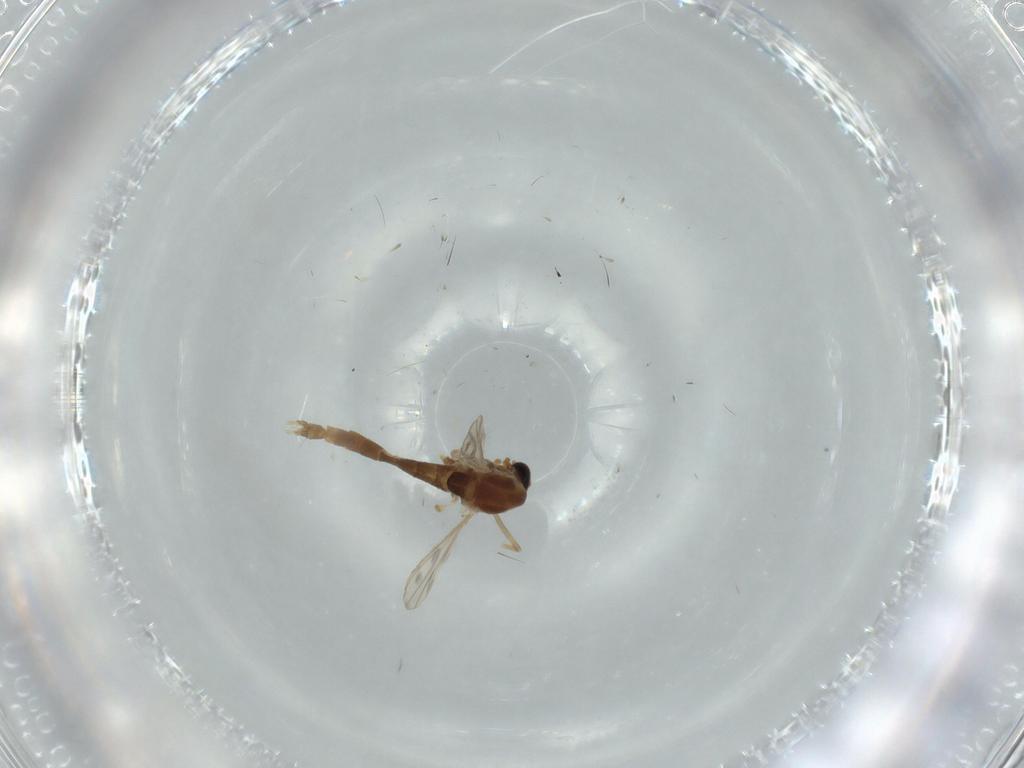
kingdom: Animalia
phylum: Arthropoda
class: Insecta
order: Diptera
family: Chironomidae
